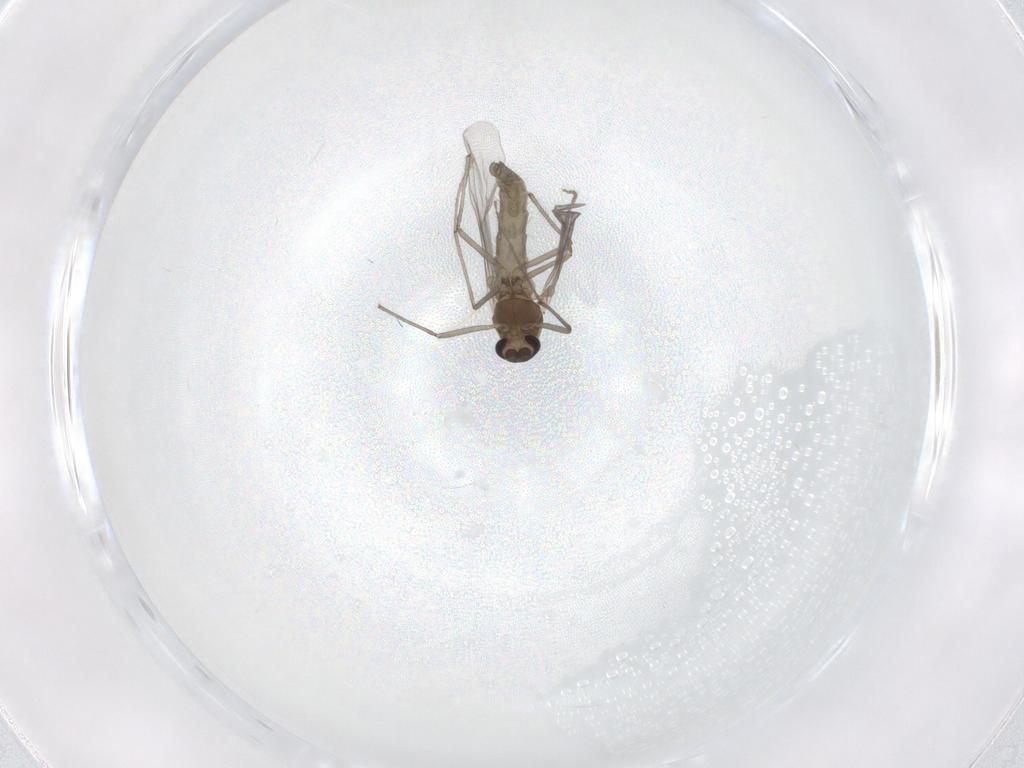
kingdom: Animalia
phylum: Arthropoda
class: Insecta
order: Diptera
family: Chironomidae
